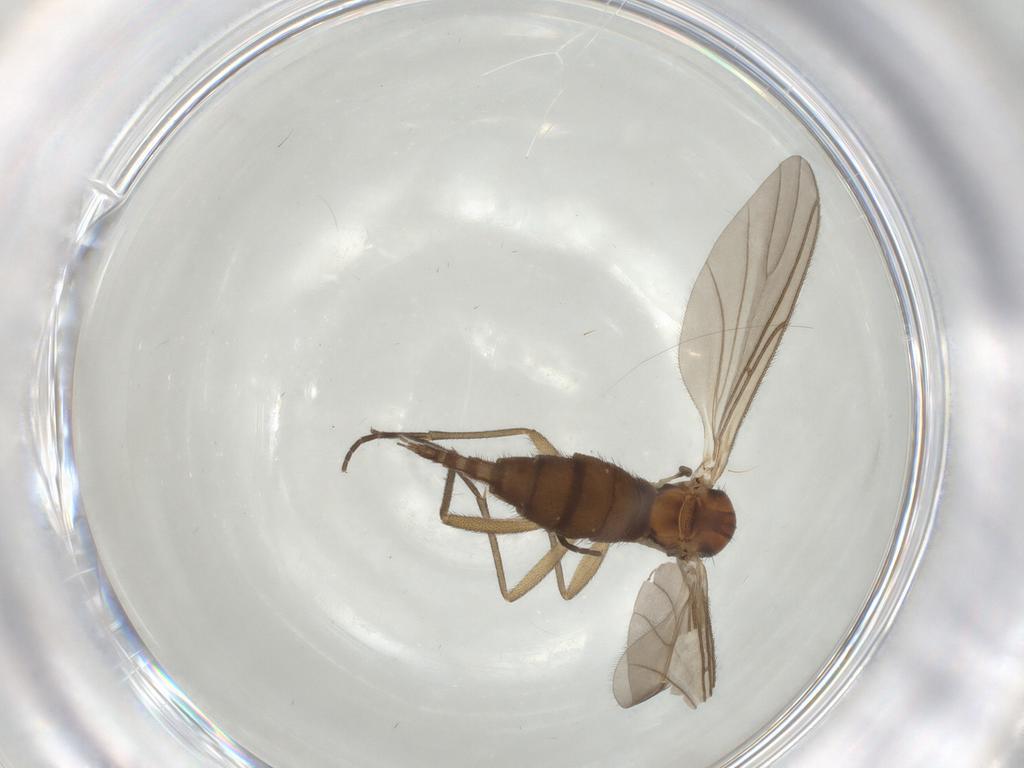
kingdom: Animalia
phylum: Arthropoda
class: Insecta
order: Diptera
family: Sciaridae
